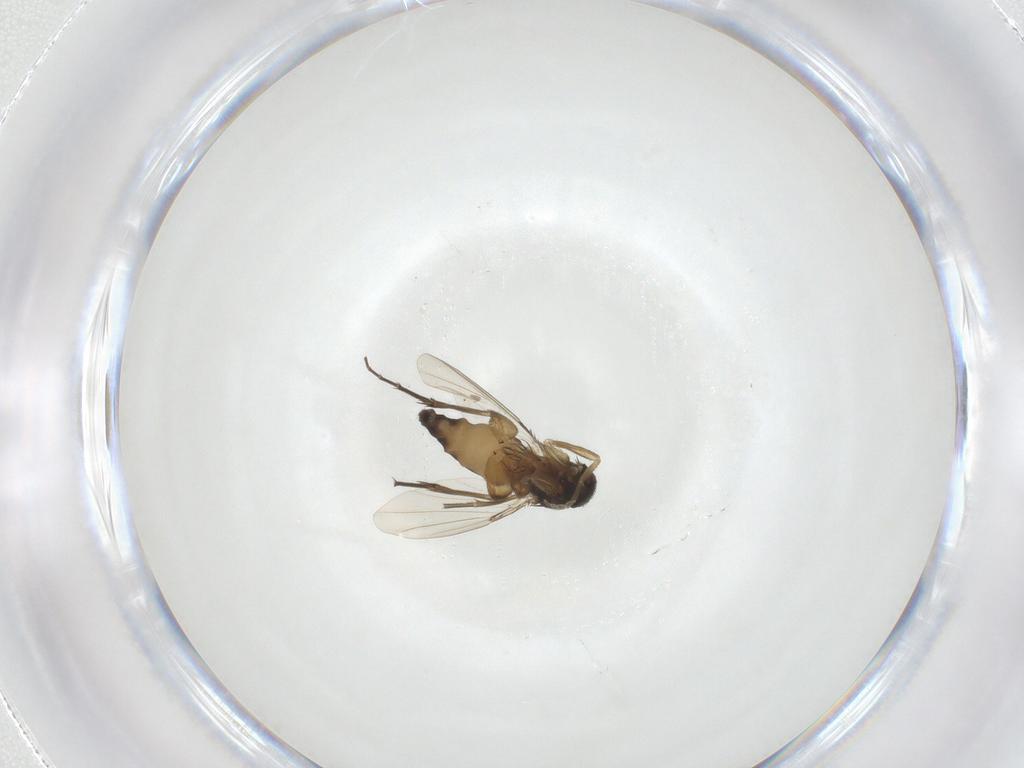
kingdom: Animalia
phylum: Arthropoda
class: Insecta
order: Diptera
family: Phoridae
